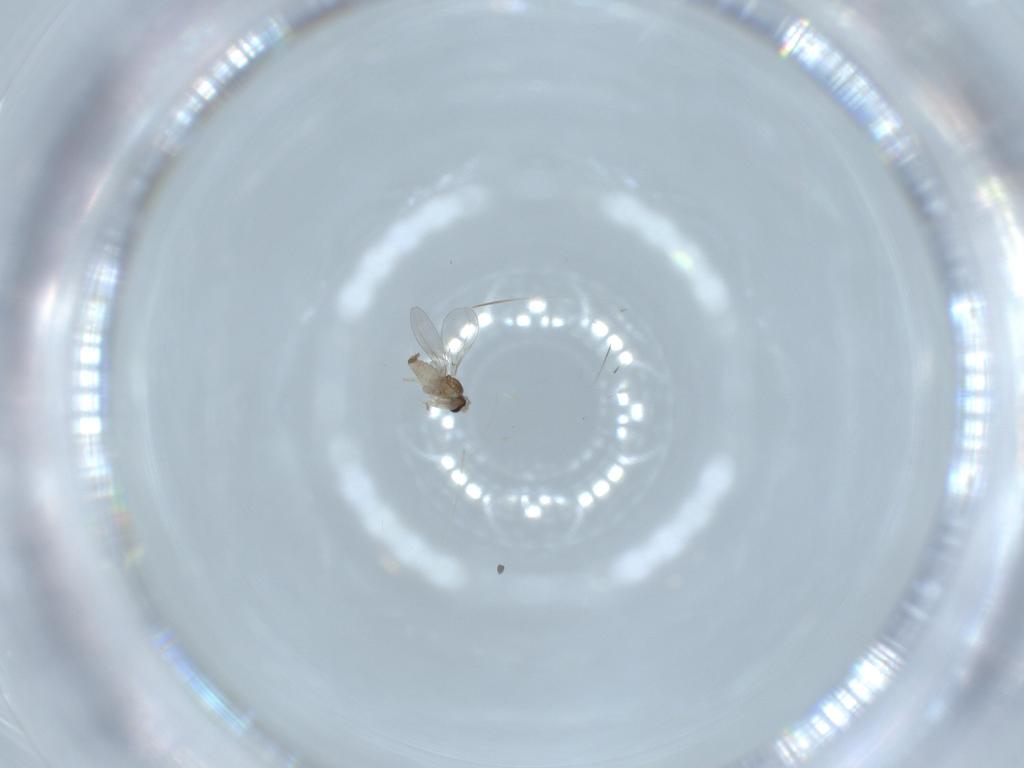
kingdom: Animalia
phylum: Arthropoda
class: Insecta
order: Diptera
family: Cecidomyiidae
